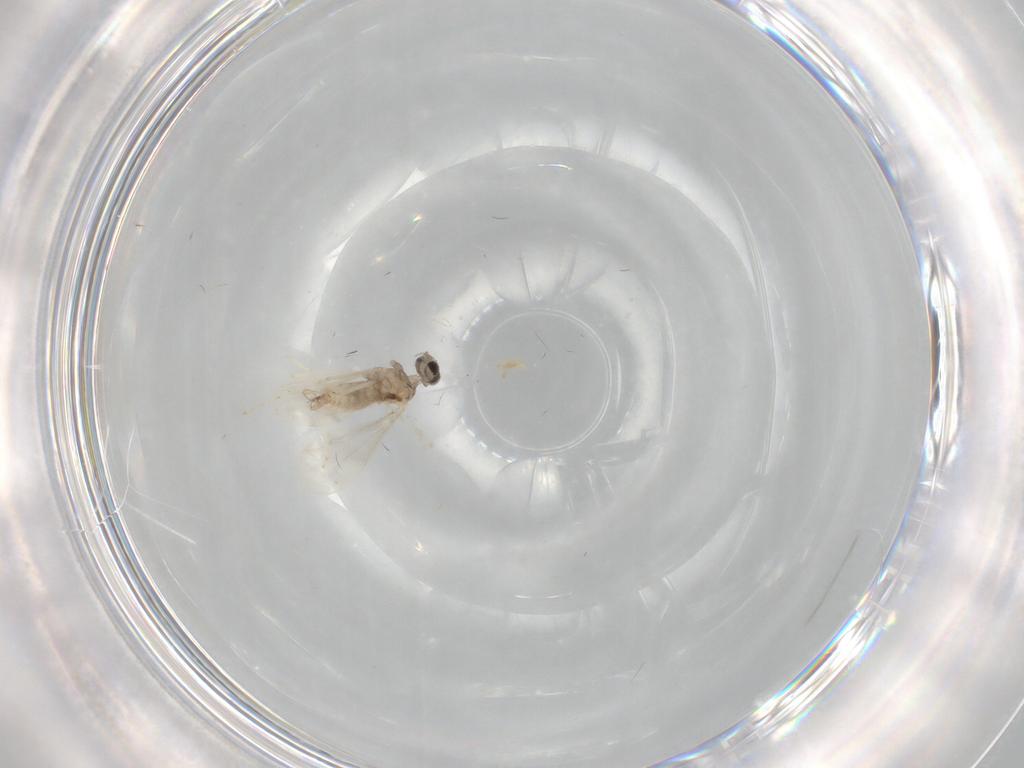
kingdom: Animalia
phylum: Arthropoda
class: Insecta
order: Diptera
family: Cecidomyiidae
